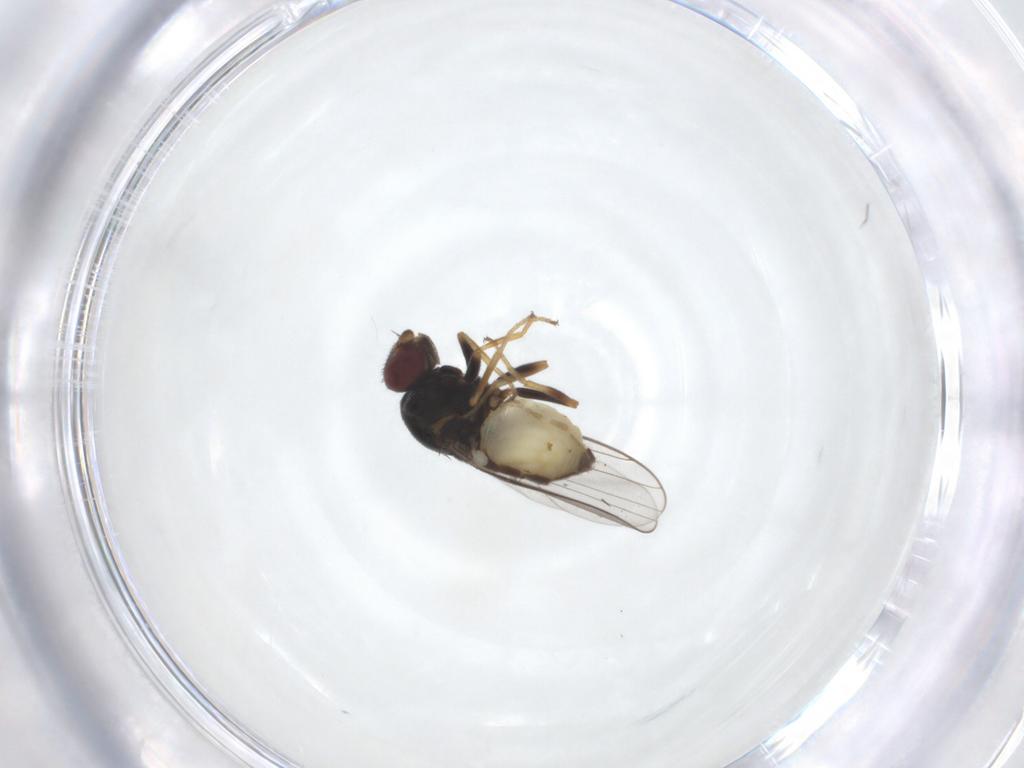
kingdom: Animalia
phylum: Arthropoda
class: Insecta
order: Diptera
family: Chloropidae
